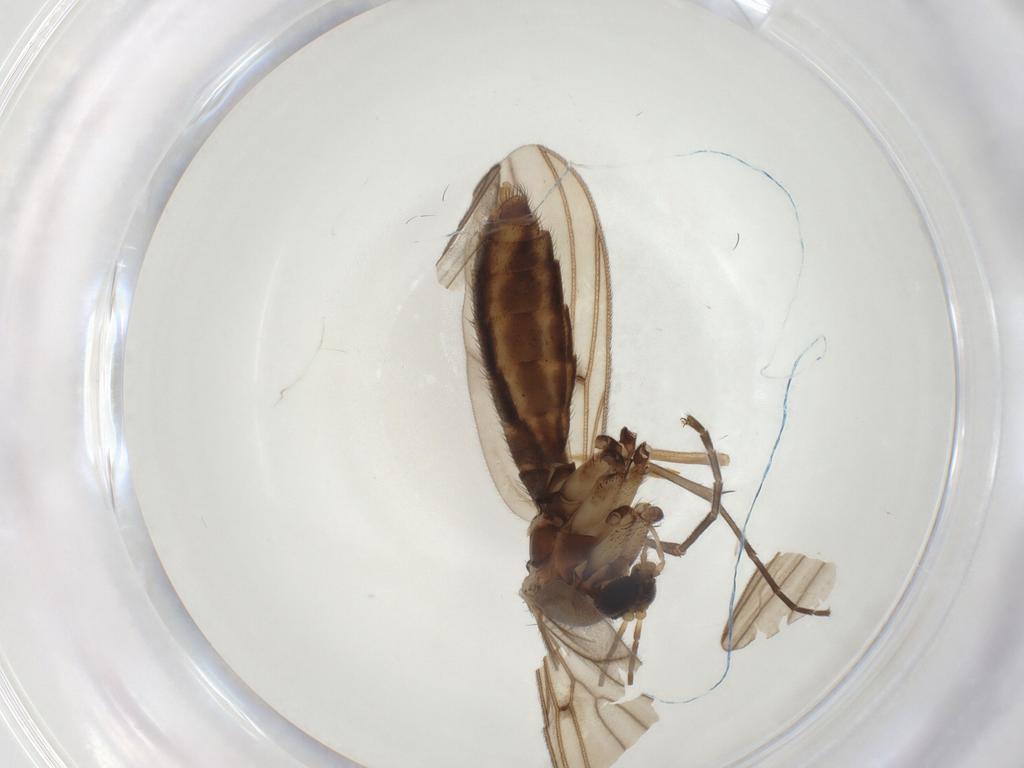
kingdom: Animalia
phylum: Arthropoda
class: Insecta
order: Diptera
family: Mycetophilidae
